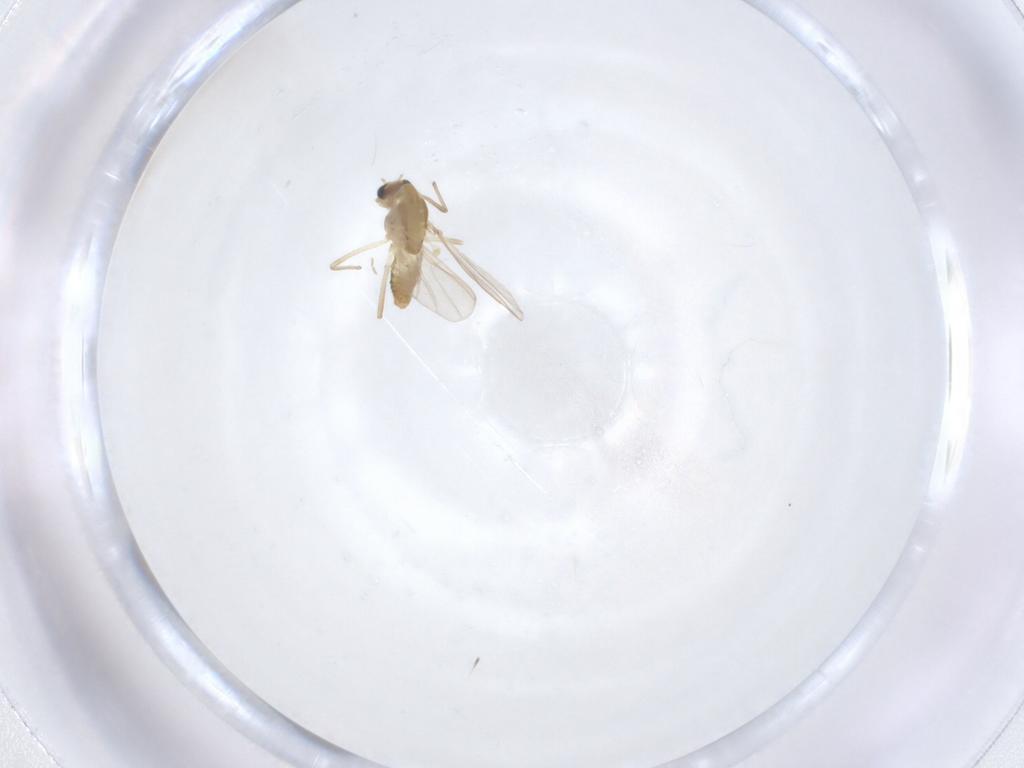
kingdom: Animalia
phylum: Arthropoda
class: Insecta
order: Diptera
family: Chironomidae
